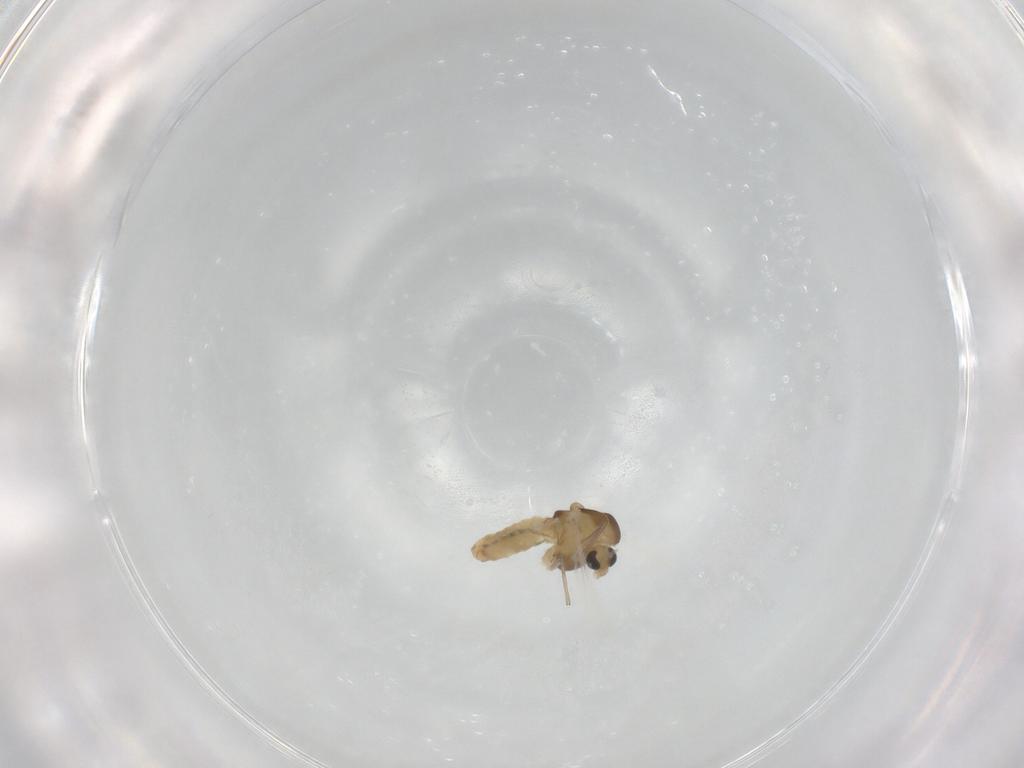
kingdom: Animalia
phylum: Arthropoda
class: Insecta
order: Diptera
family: Chironomidae
